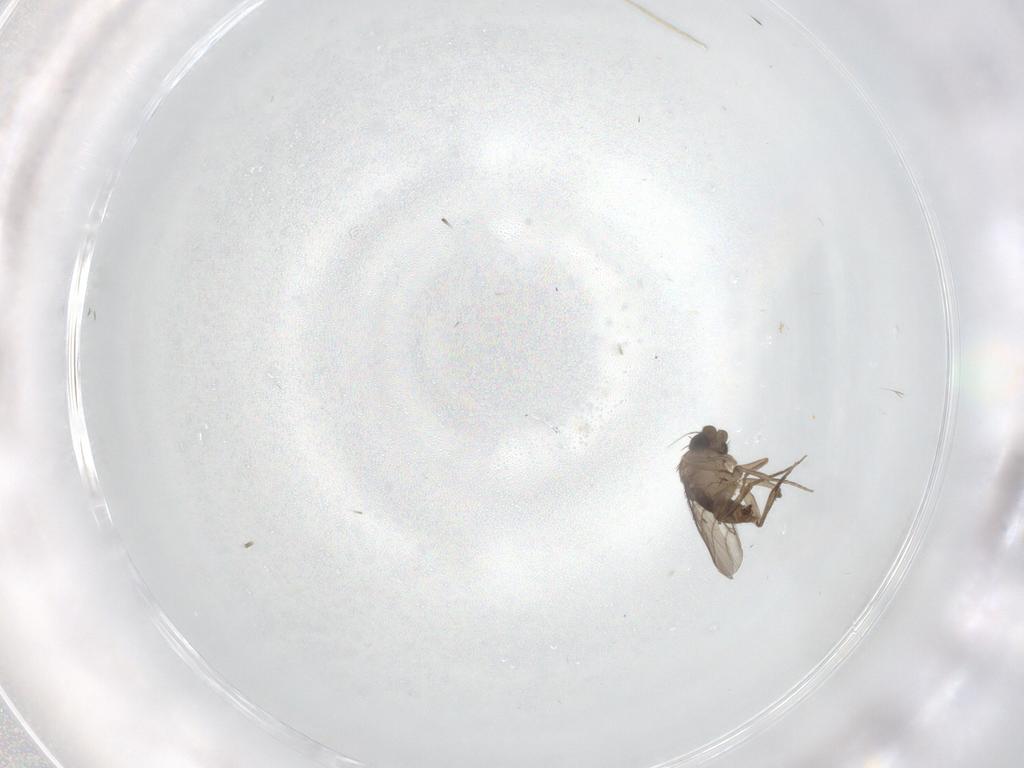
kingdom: Animalia
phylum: Arthropoda
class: Insecta
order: Diptera
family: Phoridae
